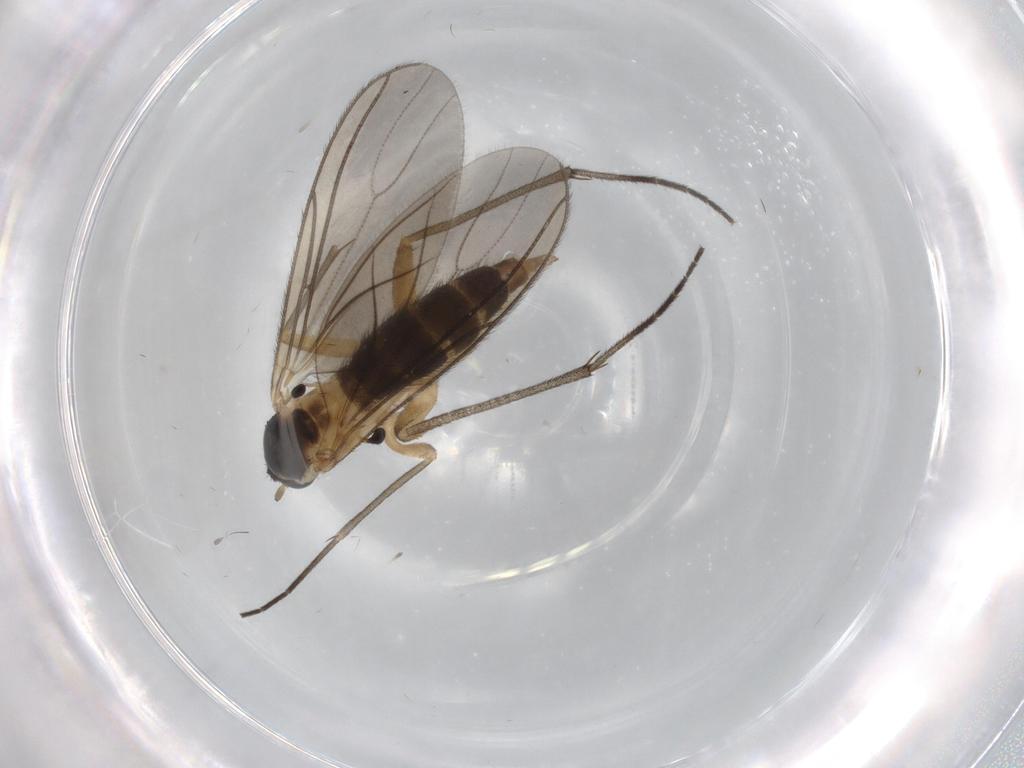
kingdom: Animalia
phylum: Arthropoda
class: Insecta
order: Diptera
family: Sciaridae
